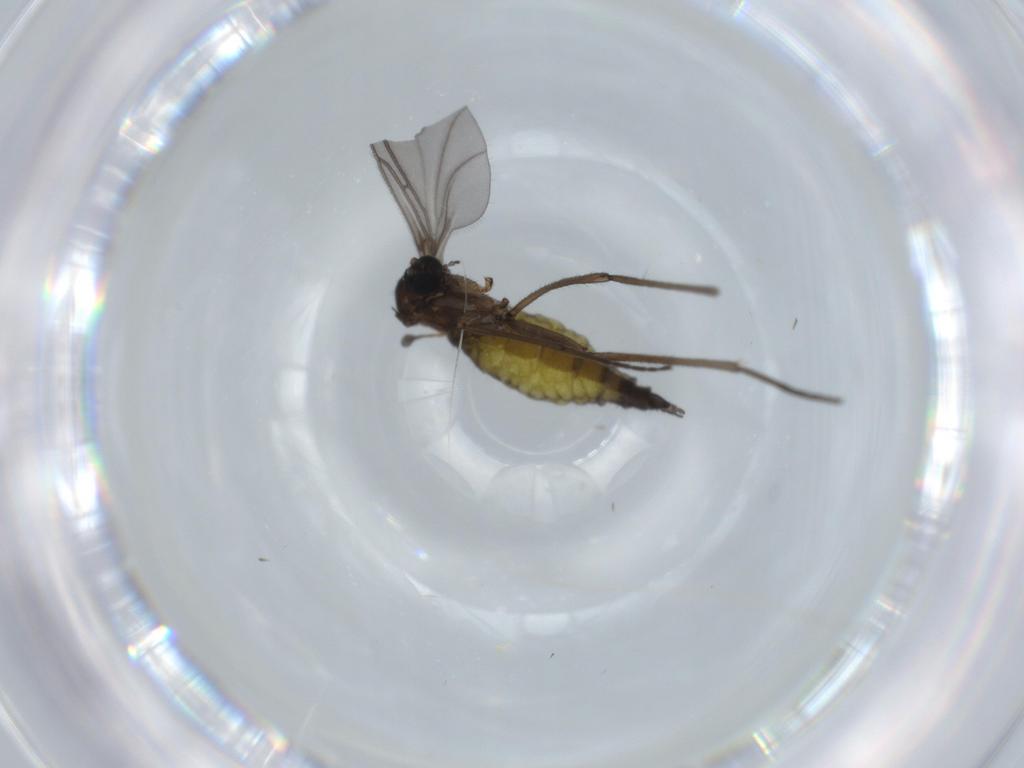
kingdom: Animalia
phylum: Arthropoda
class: Insecta
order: Diptera
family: Sciaridae
